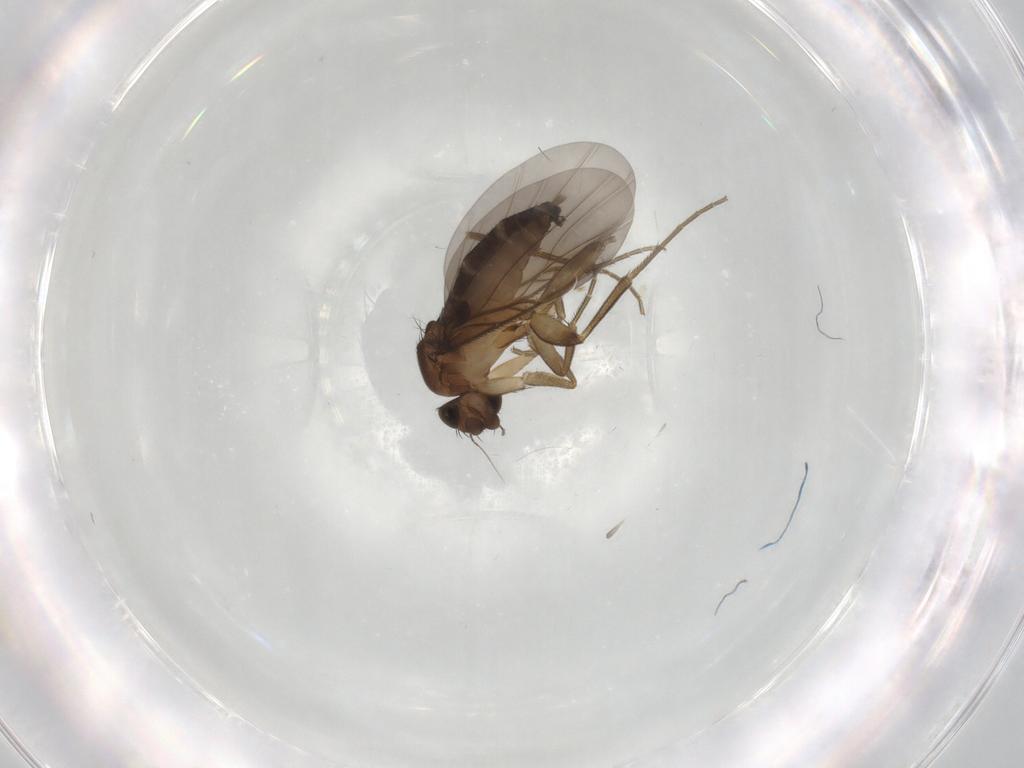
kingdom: Animalia
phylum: Arthropoda
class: Insecta
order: Diptera
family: Phoridae
